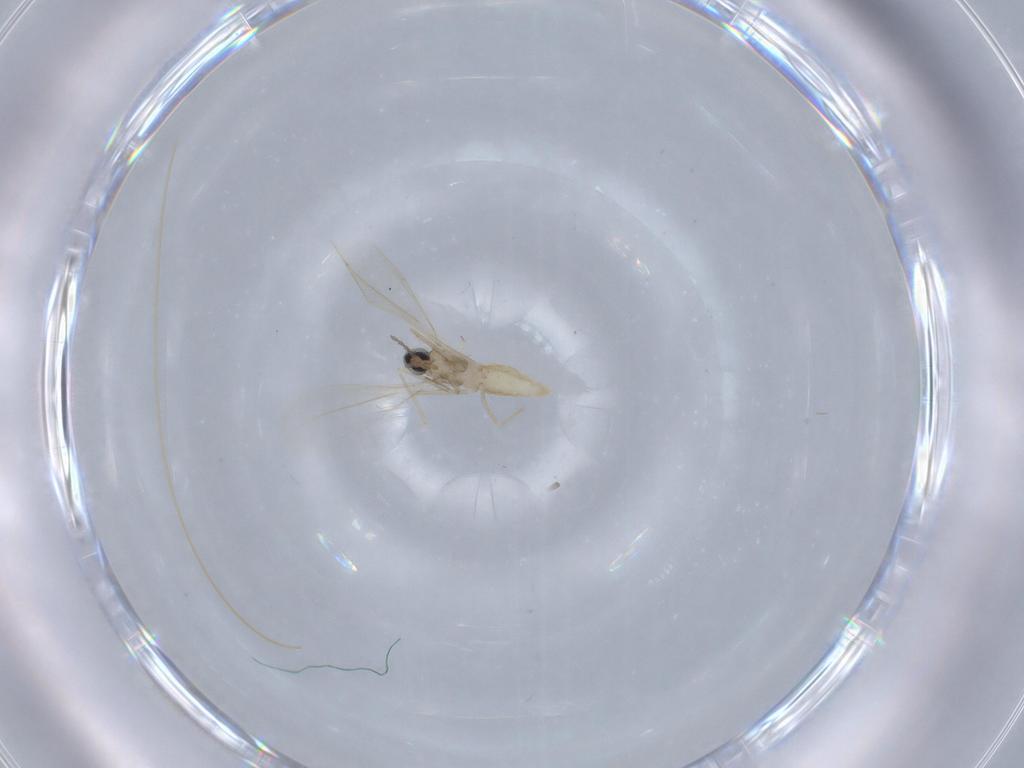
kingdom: Animalia
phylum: Arthropoda
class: Insecta
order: Diptera
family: Cecidomyiidae
